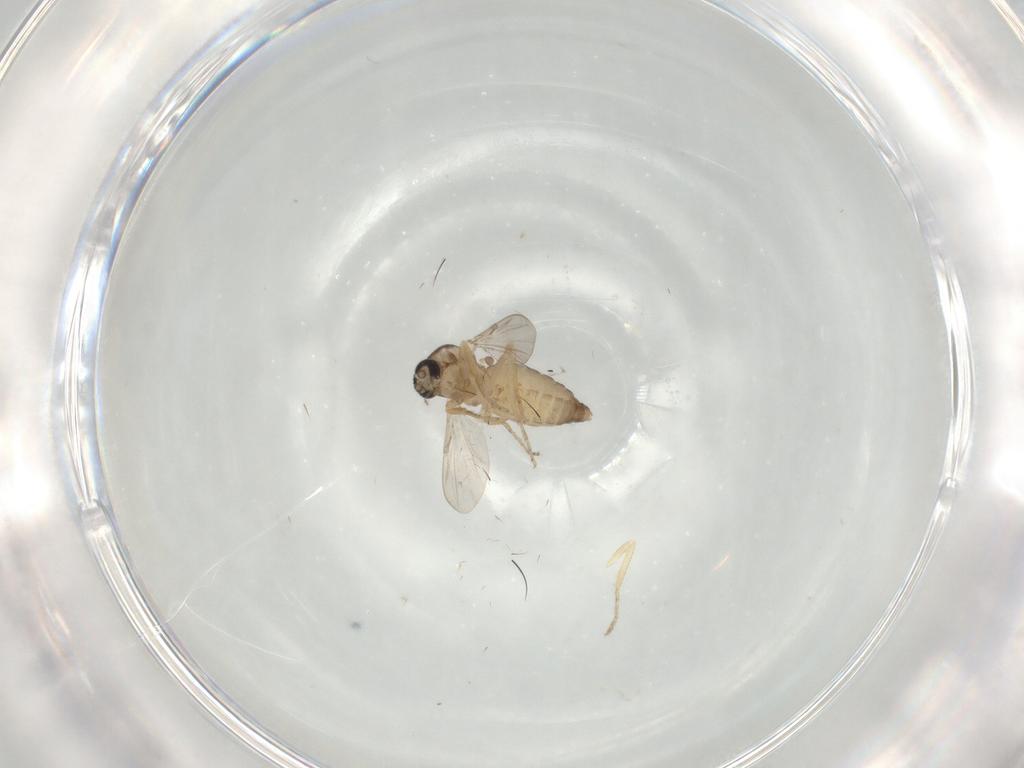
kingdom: Animalia
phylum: Arthropoda
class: Insecta
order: Diptera
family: Ceratopogonidae
